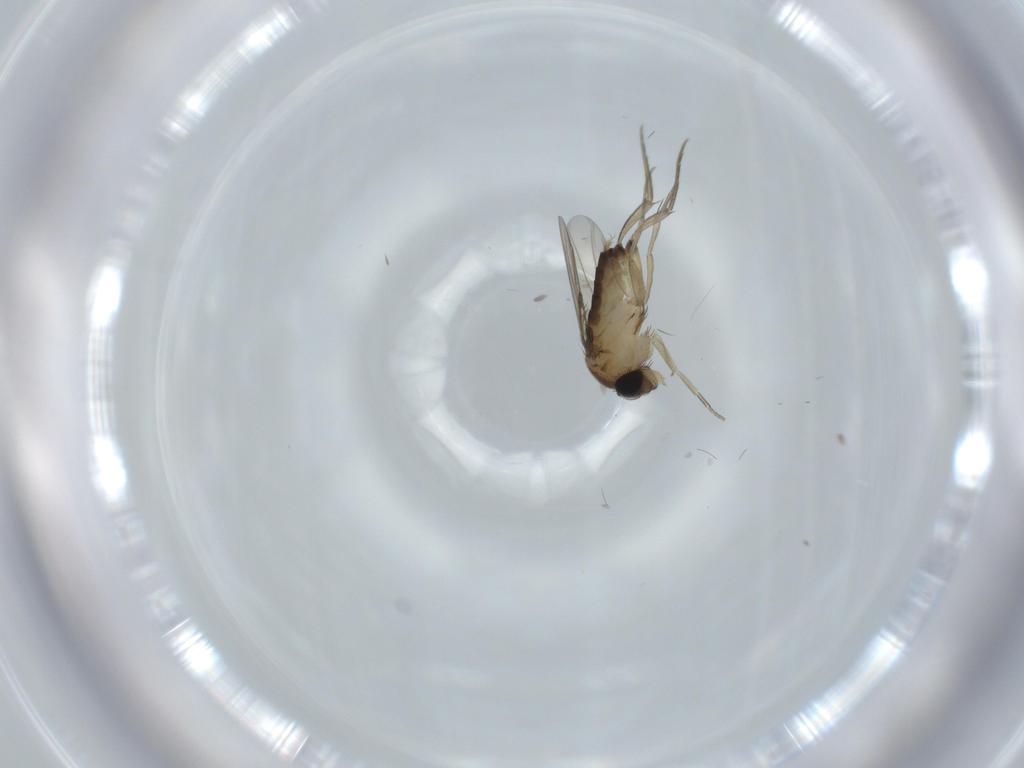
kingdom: Animalia
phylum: Arthropoda
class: Insecta
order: Diptera
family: Phoridae
